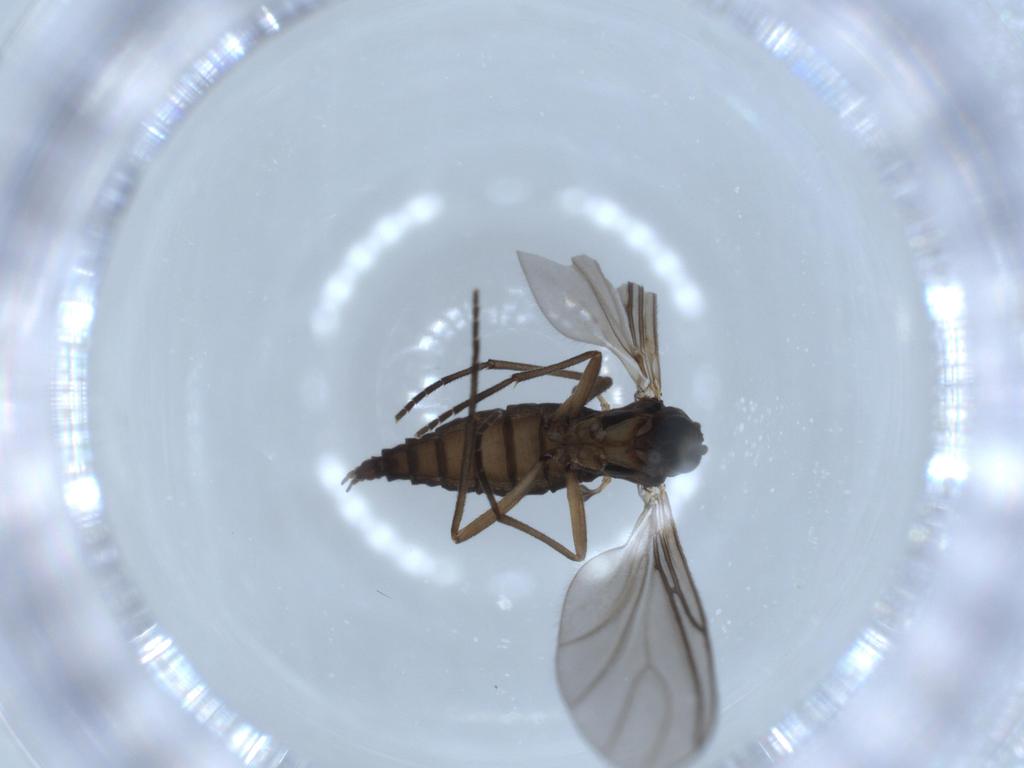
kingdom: Animalia
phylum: Arthropoda
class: Insecta
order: Diptera
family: Sciaridae
